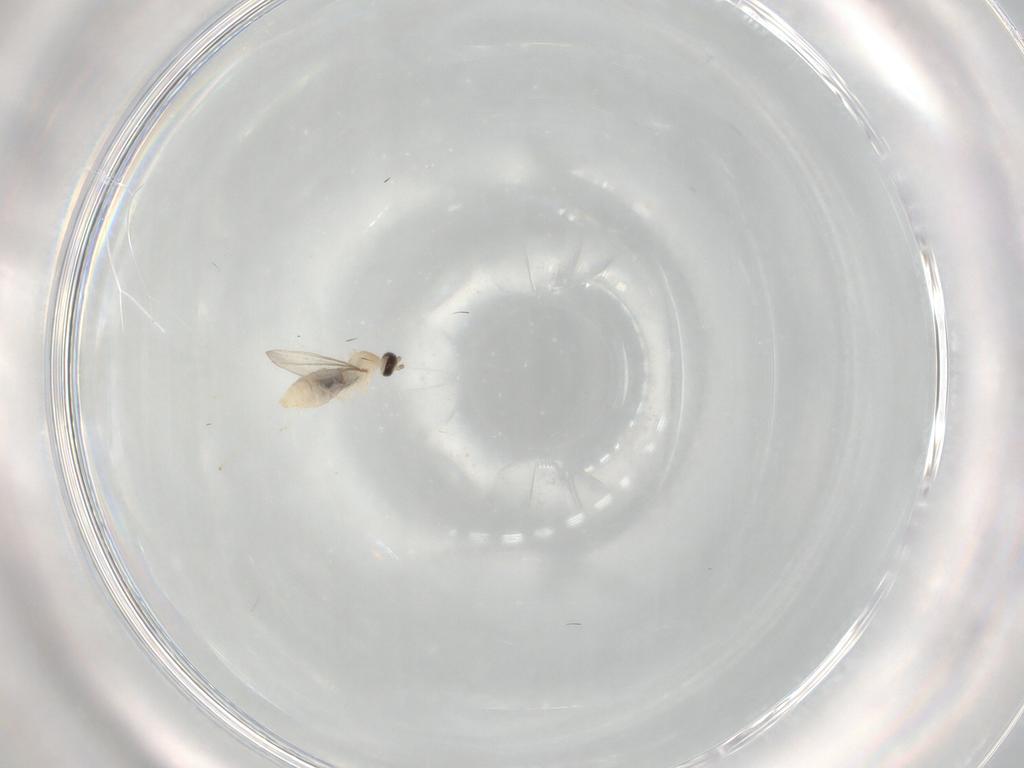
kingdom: Animalia
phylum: Arthropoda
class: Insecta
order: Diptera
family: Cecidomyiidae
